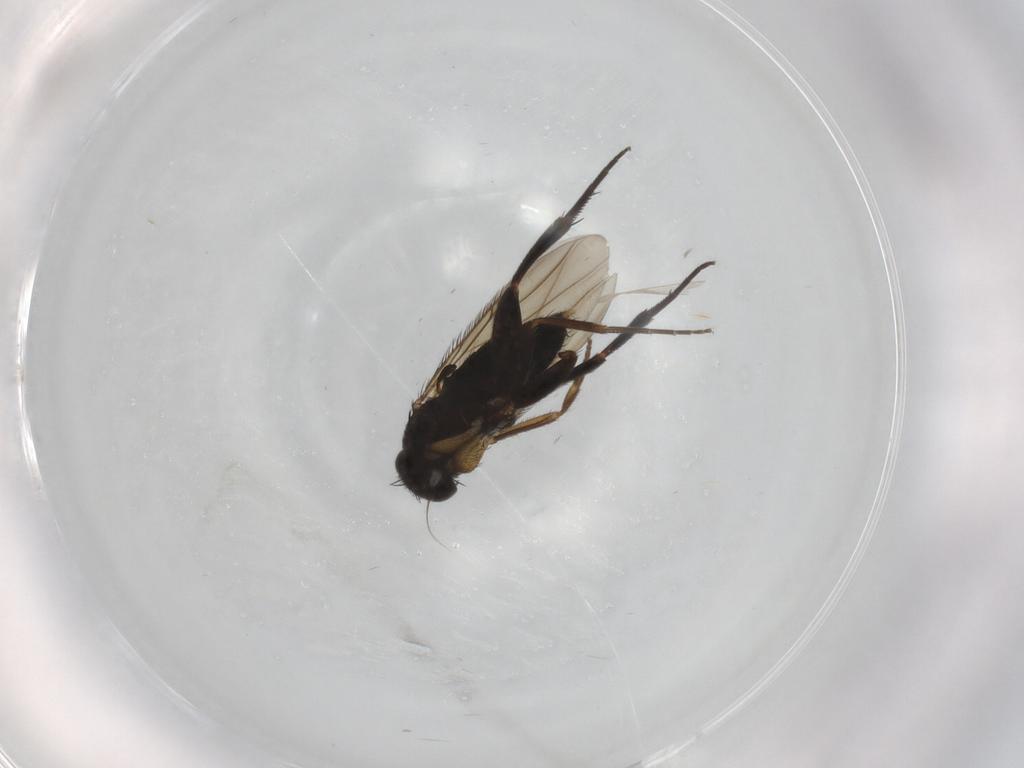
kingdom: Animalia
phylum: Arthropoda
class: Insecta
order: Diptera
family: Phoridae
